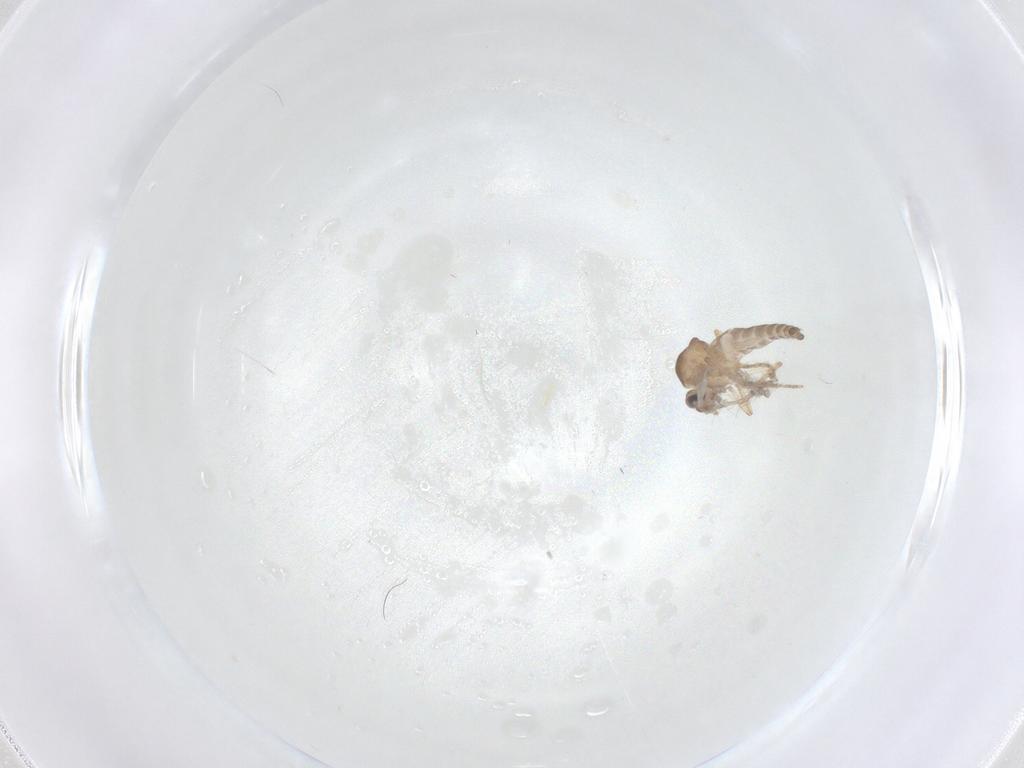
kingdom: Animalia
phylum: Arthropoda
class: Insecta
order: Diptera
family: Ceratopogonidae
